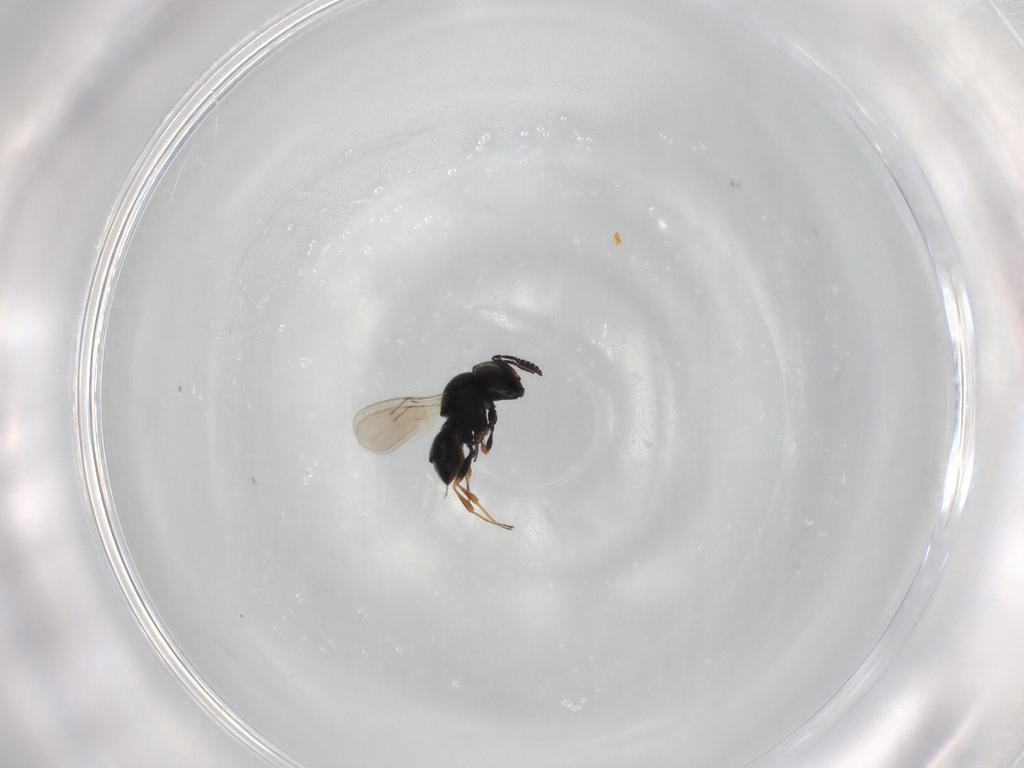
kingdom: Animalia
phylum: Arthropoda
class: Insecta
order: Hymenoptera
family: Scelionidae
